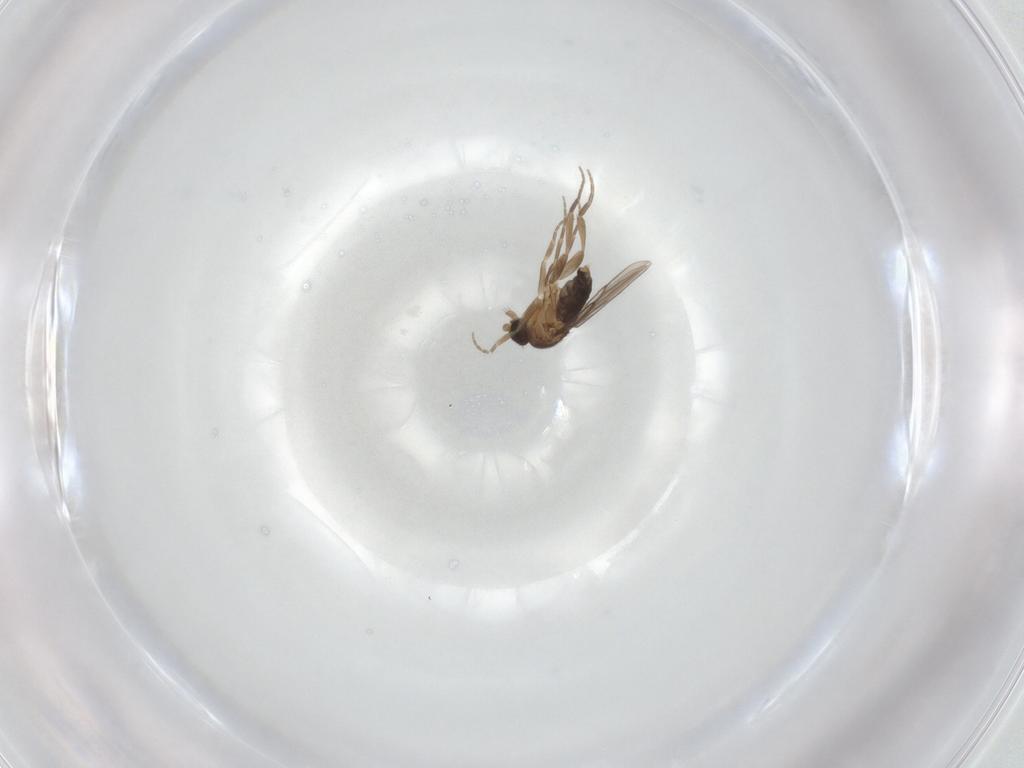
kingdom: Animalia
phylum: Arthropoda
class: Insecta
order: Diptera
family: Phoridae
